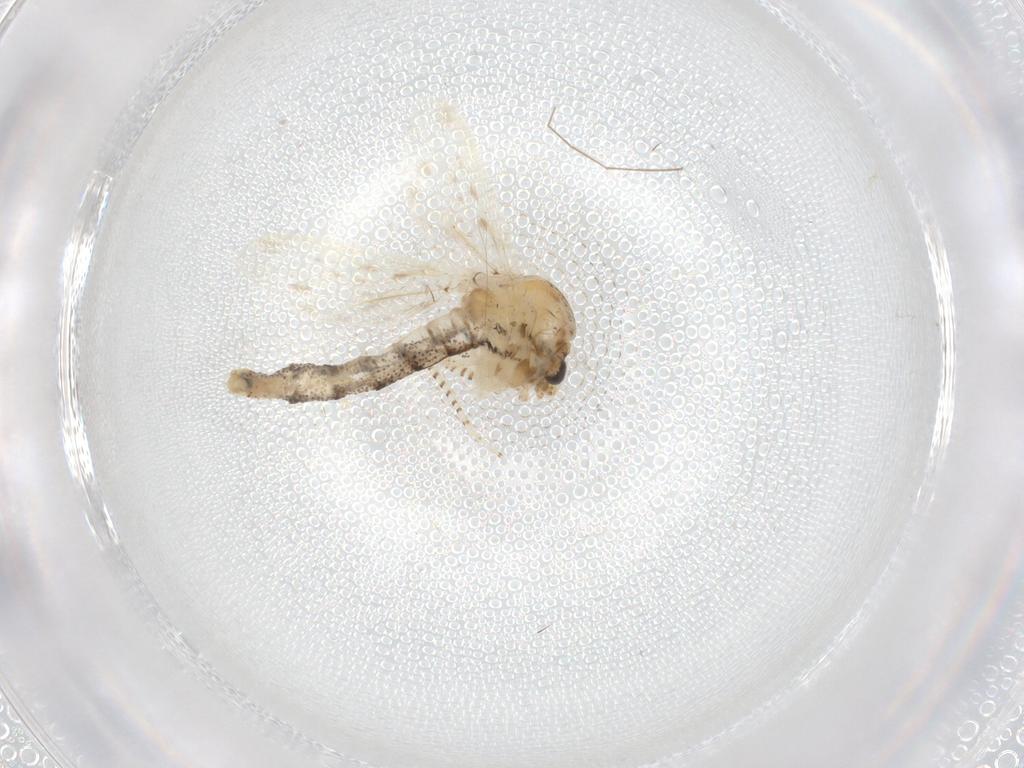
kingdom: Animalia
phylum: Arthropoda
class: Insecta
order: Diptera
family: Chaoboridae
